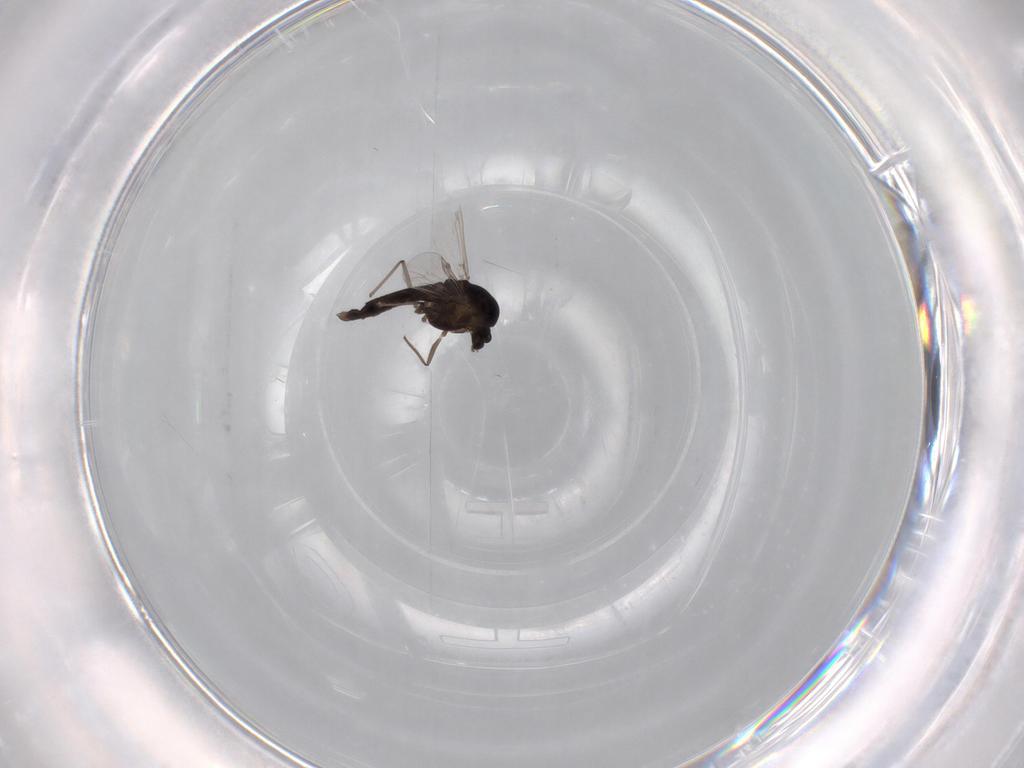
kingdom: Animalia
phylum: Arthropoda
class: Insecta
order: Diptera
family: Chironomidae
